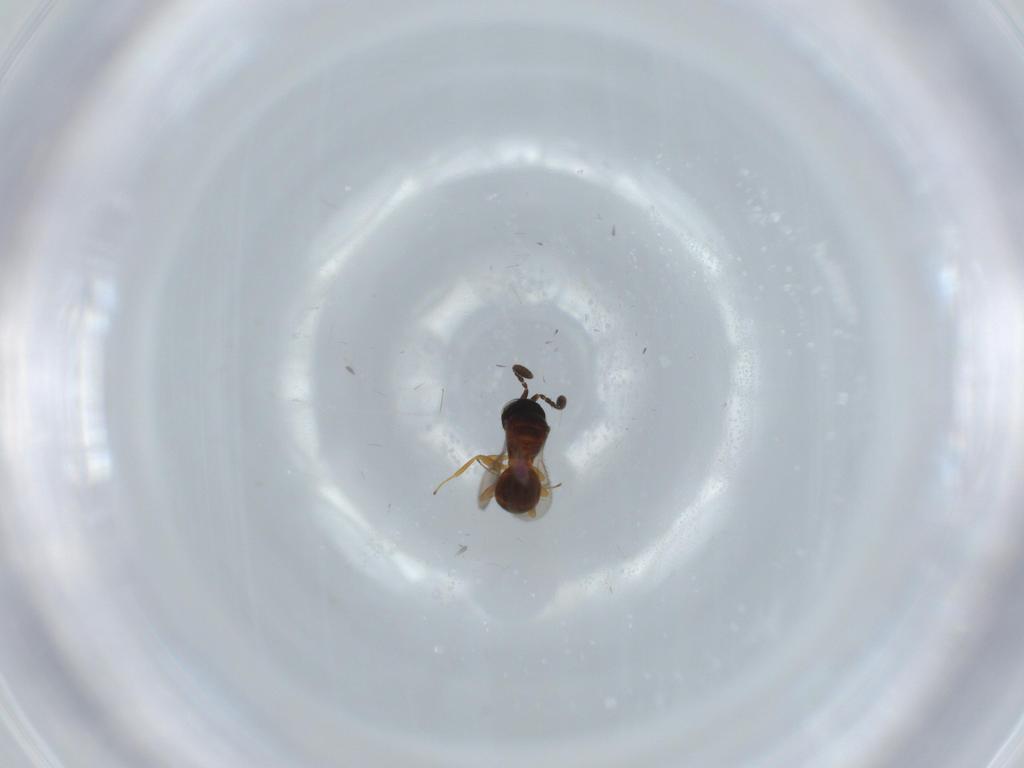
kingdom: Animalia
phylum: Arthropoda
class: Insecta
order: Hymenoptera
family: Scelionidae
